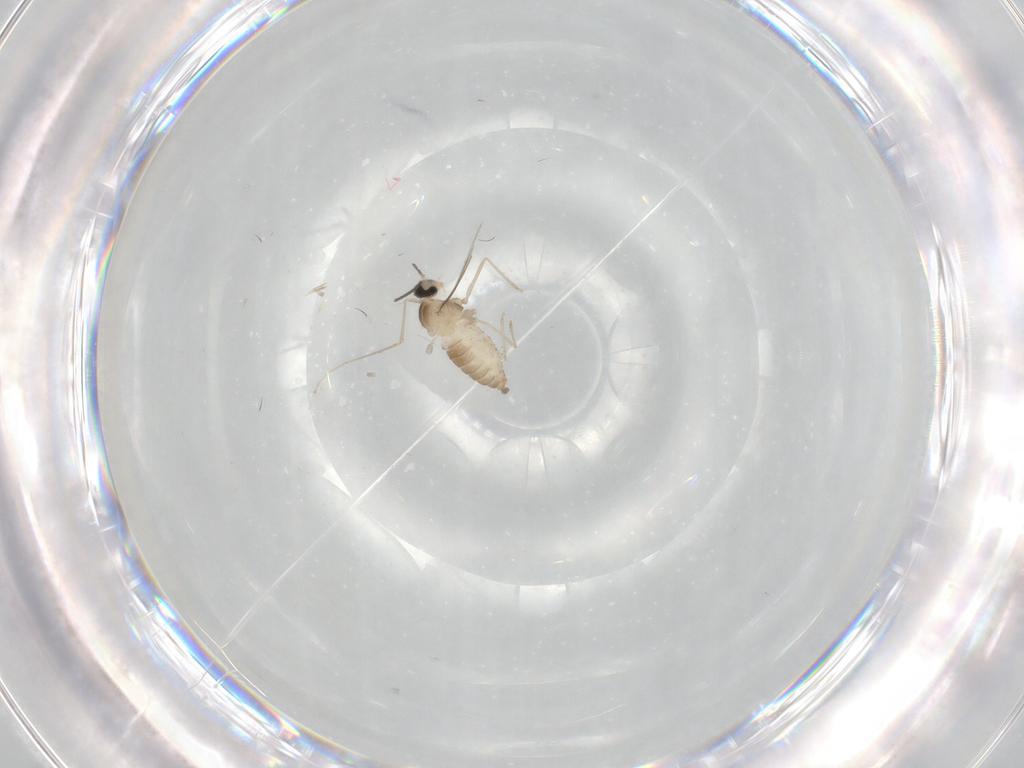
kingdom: Animalia
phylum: Arthropoda
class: Insecta
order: Diptera
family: Cecidomyiidae
